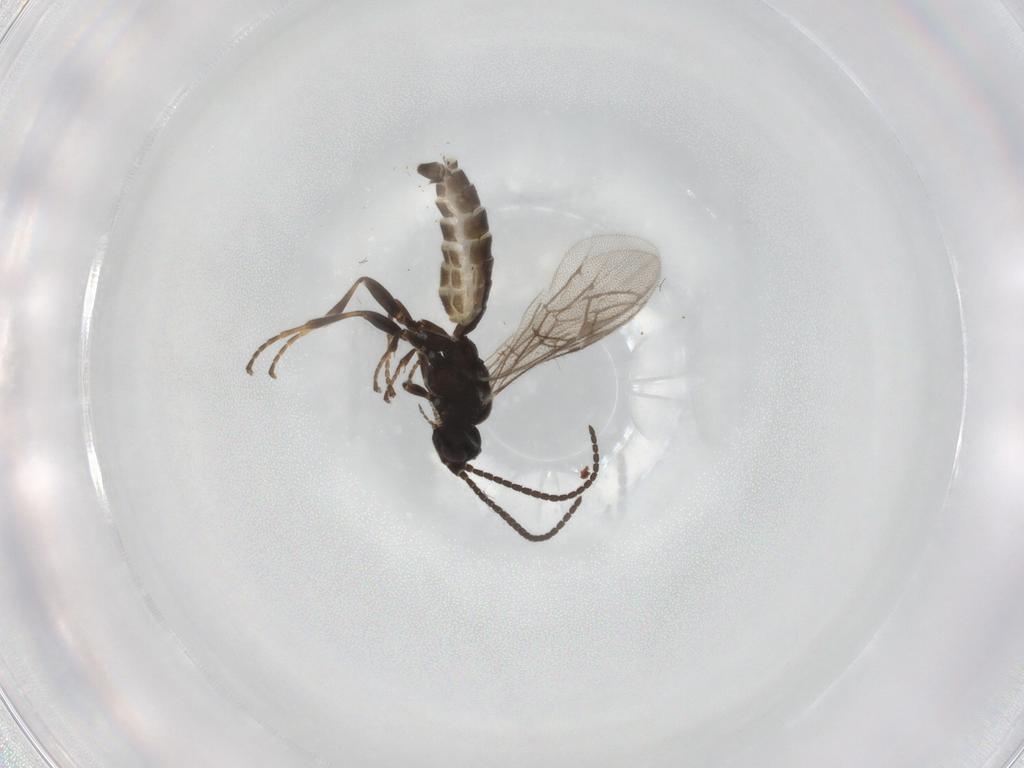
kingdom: Animalia
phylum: Arthropoda
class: Insecta
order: Hymenoptera
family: Ichneumonidae
